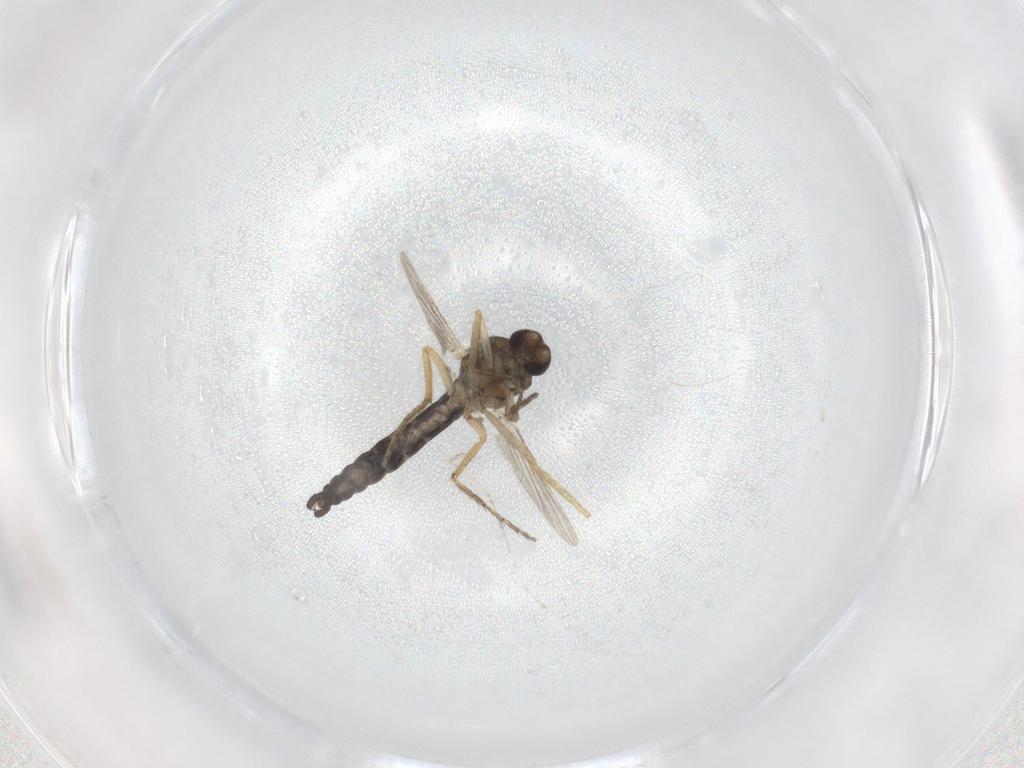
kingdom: Animalia
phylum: Arthropoda
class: Insecta
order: Diptera
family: Ceratopogonidae
